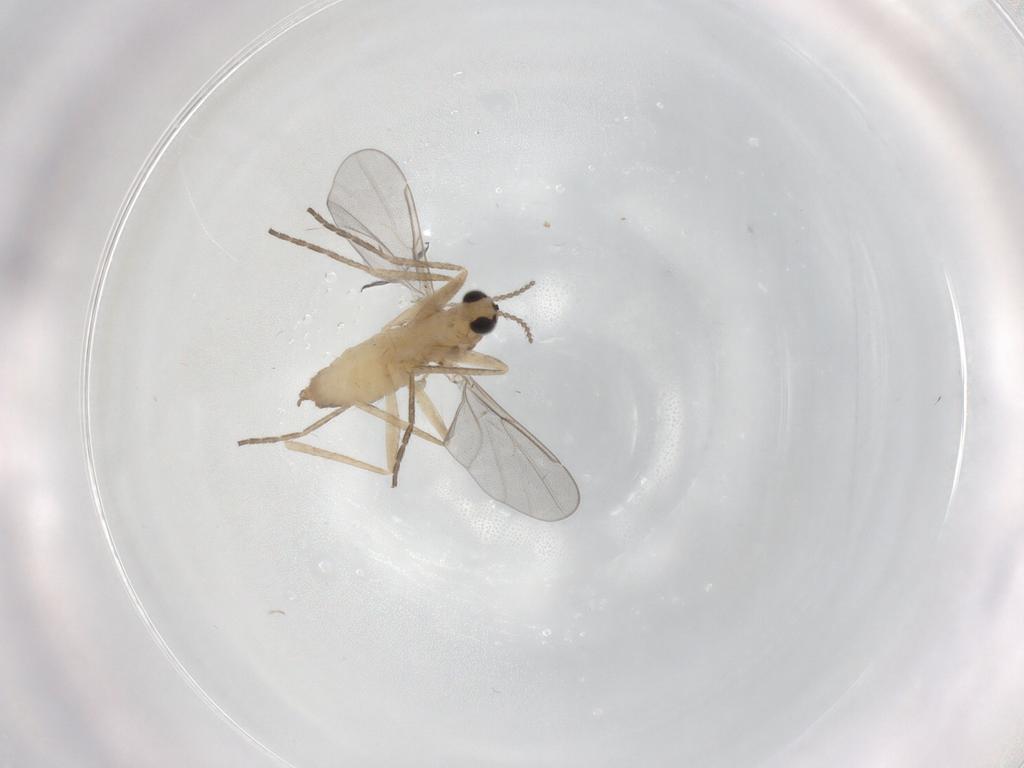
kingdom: Animalia
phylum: Arthropoda
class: Insecta
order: Diptera
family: Cecidomyiidae
